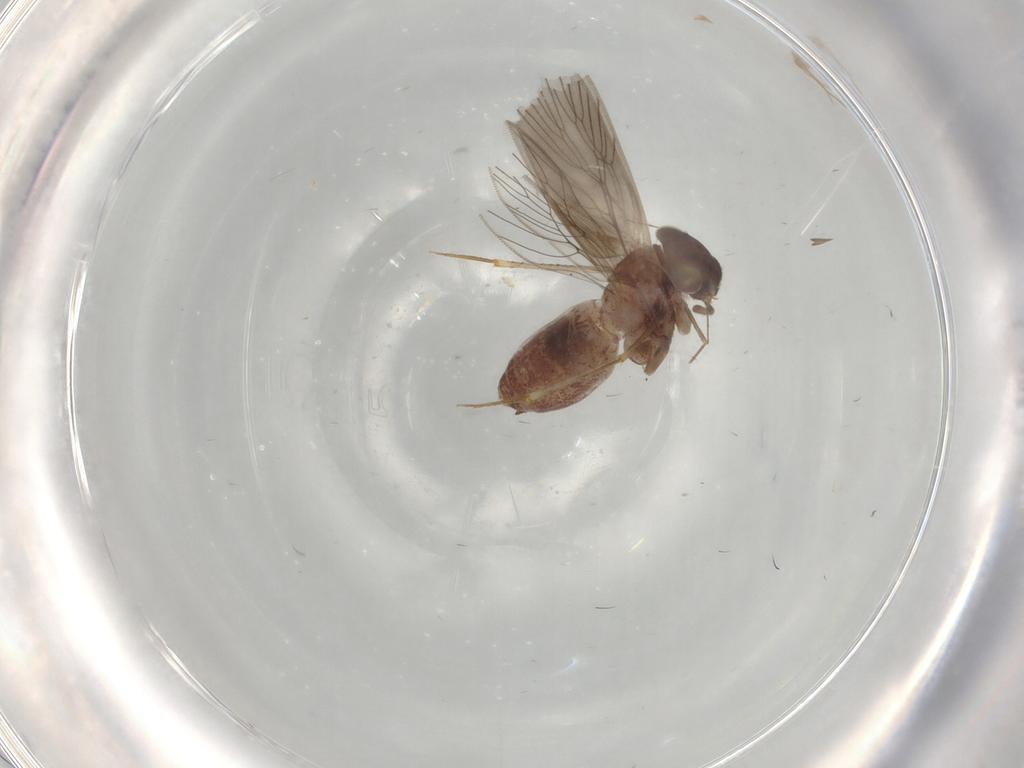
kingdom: Animalia
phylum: Arthropoda
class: Insecta
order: Psocodea
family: Lepidopsocidae
